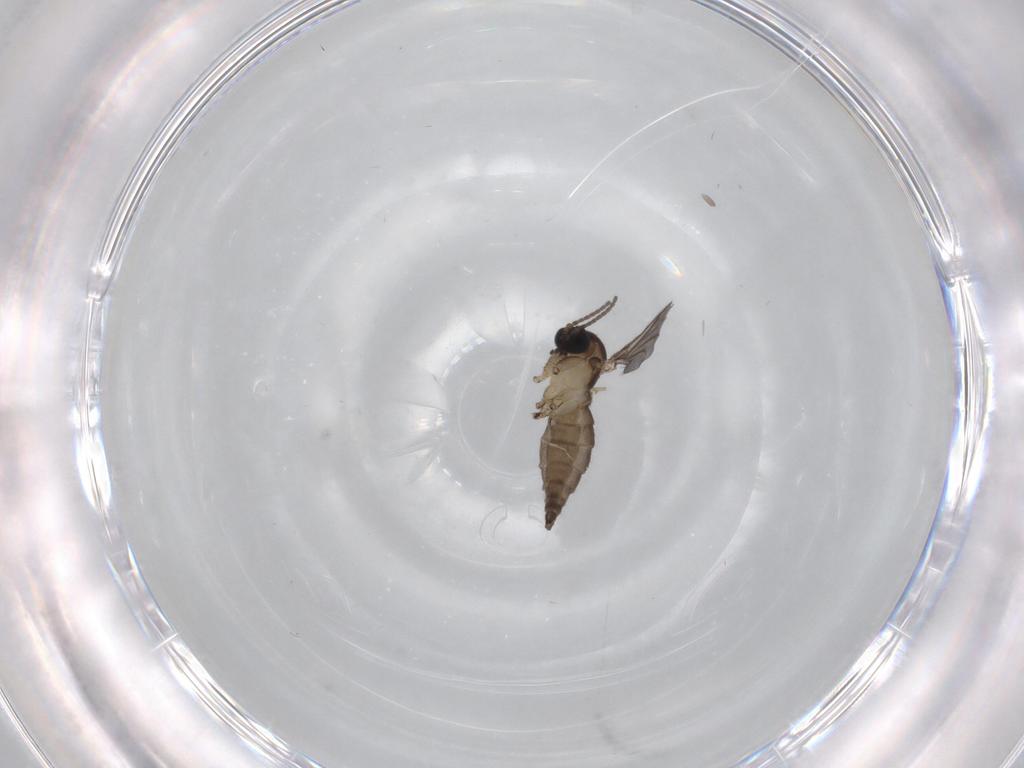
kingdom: Animalia
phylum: Arthropoda
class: Insecta
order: Diptera
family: Sciaridae
